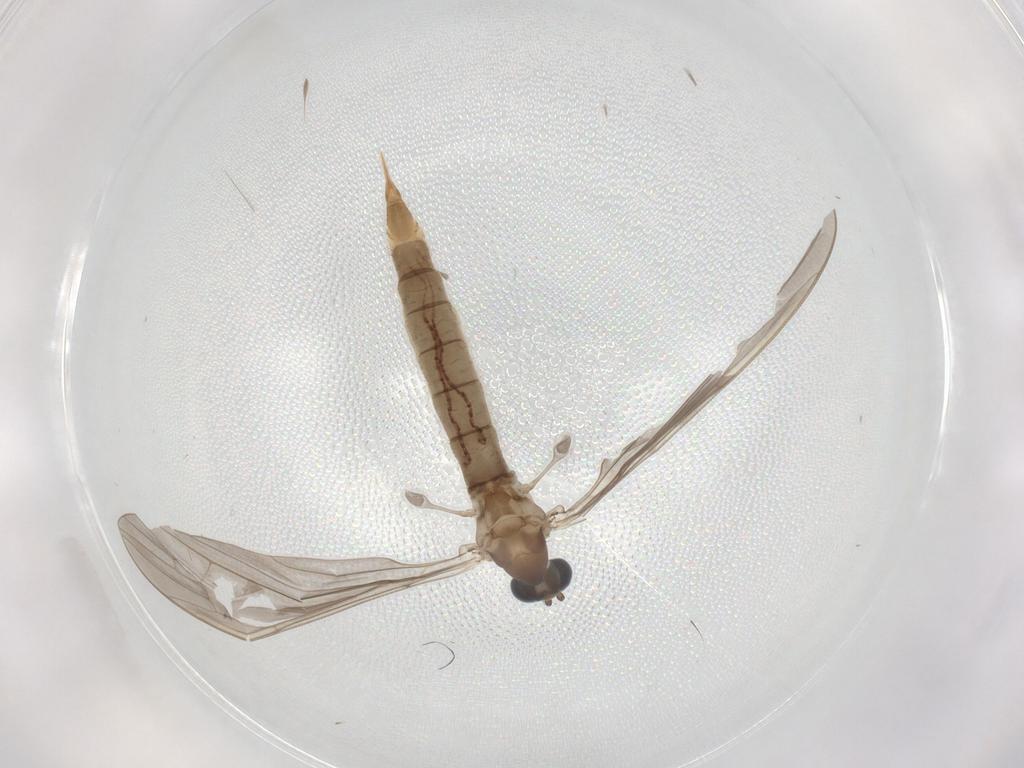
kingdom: Animalia
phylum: Arthropoda
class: Insecta
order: Diptera
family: Limoniidae
